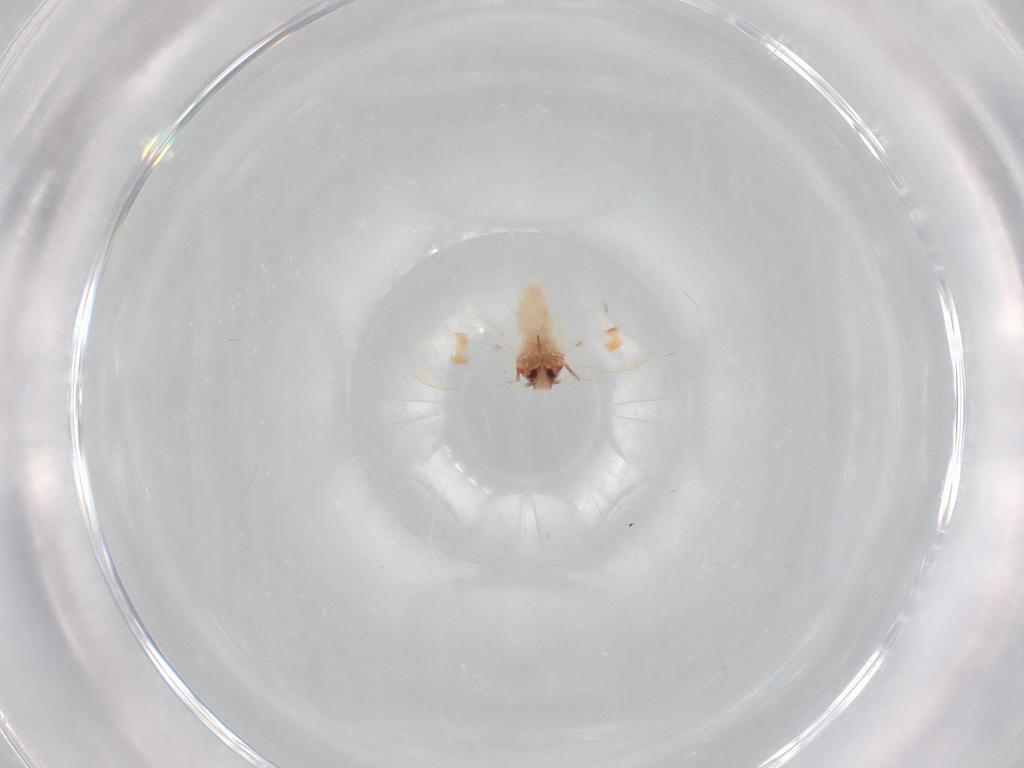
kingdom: Animalia
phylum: Arthropoda
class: Insecta
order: Hemiptera
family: Aleyrodidae
